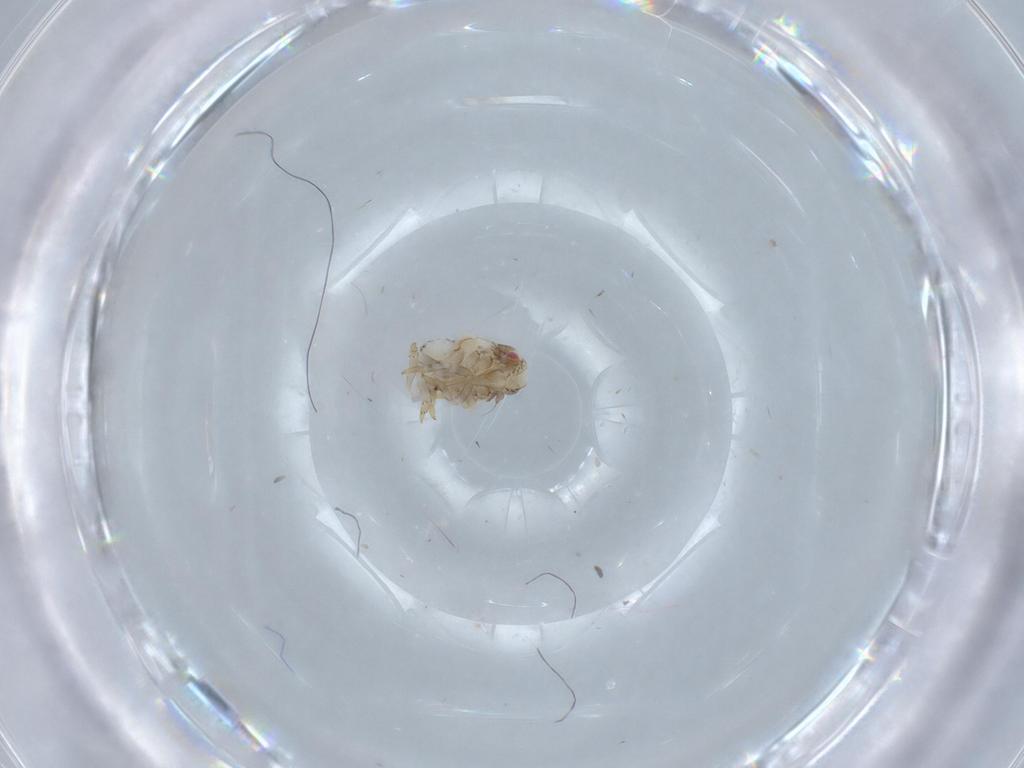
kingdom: Animalia
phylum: Arthropoda
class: Insecta
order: Hemiptera
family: Acanaloniidae
